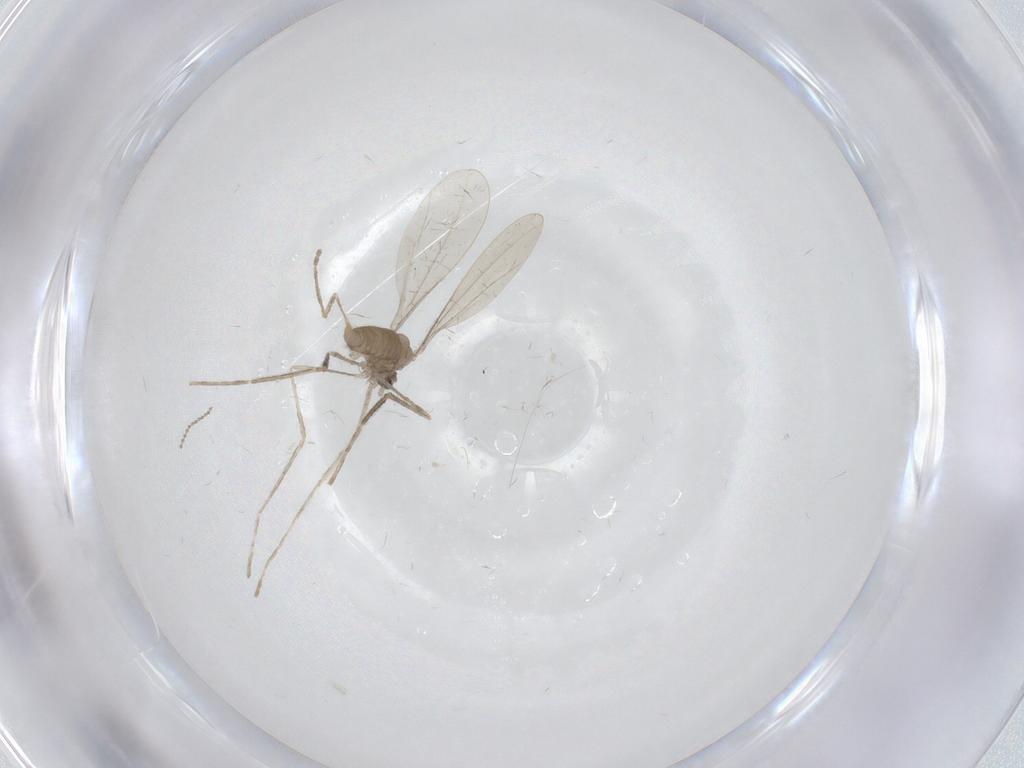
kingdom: Animalia
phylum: Arthropoda
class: Insecta
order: Diptera
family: Cecidomyiidae
